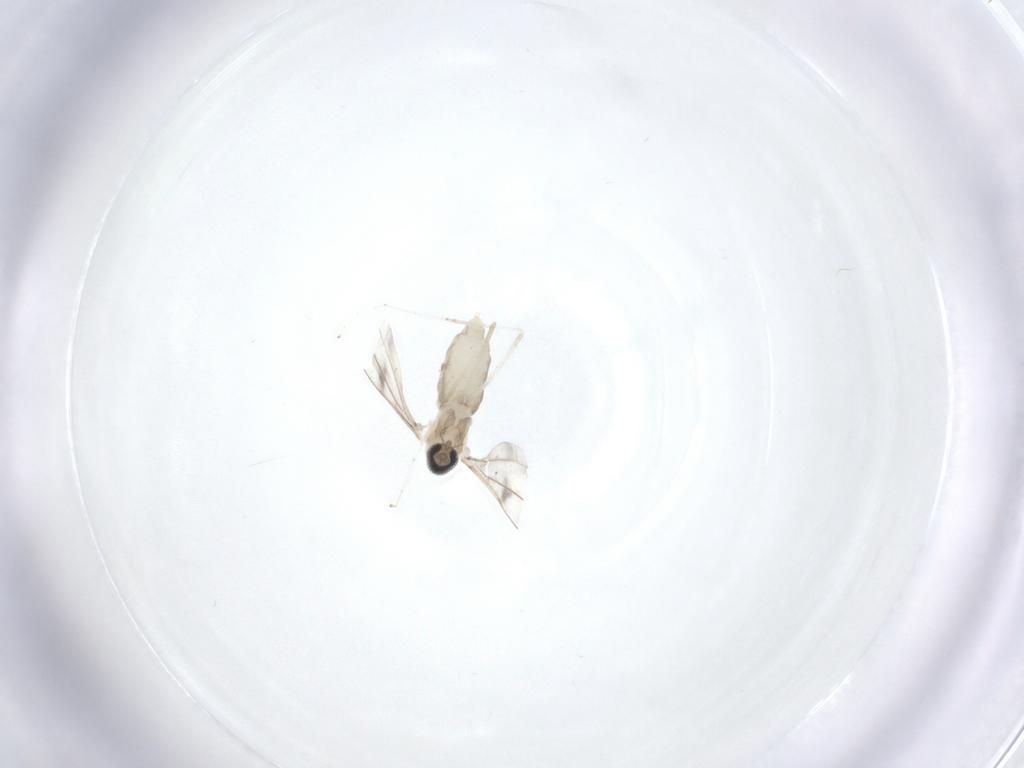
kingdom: Animalia
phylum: Arthropoda
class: Insecta
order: Diptera
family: Cecidomyiidae
